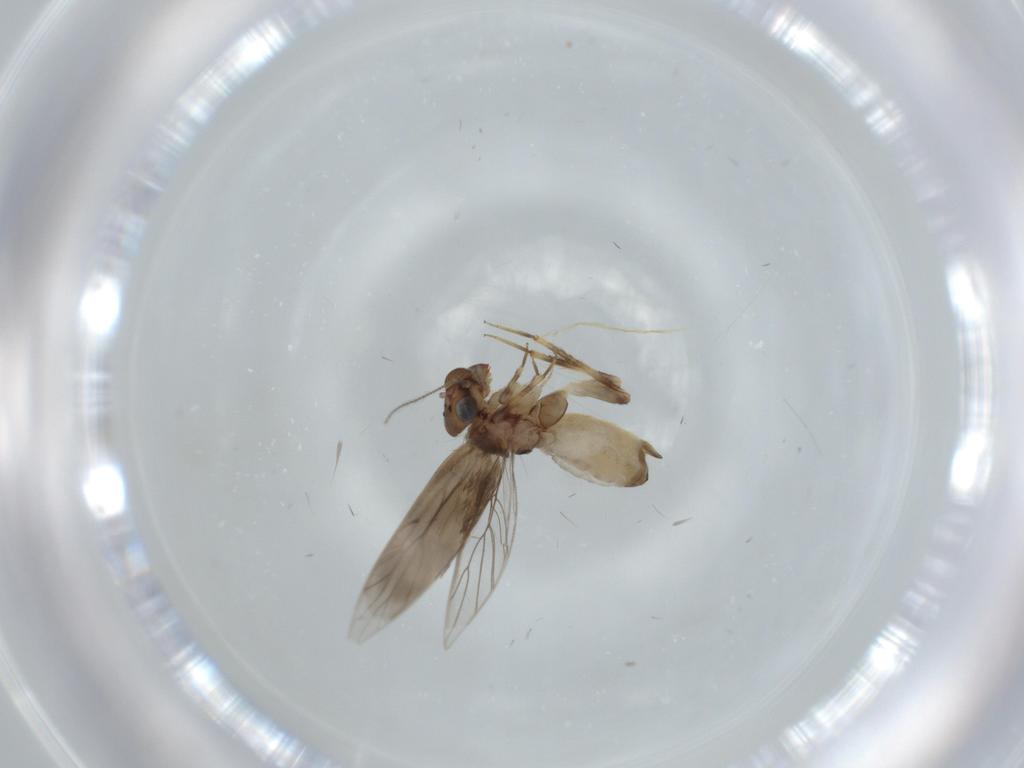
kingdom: Animalia
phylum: Arthropoda
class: Insecta
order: Psocodea
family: Lepidopsocidae
